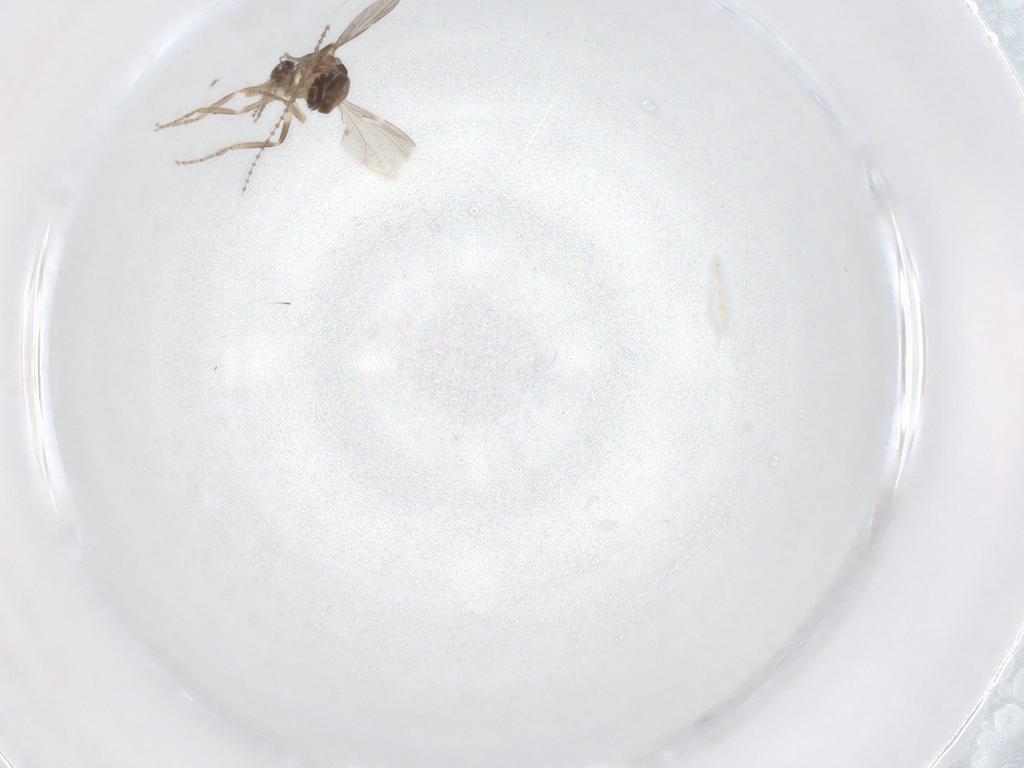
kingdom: Animalia
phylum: Arthropoda
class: Insecta
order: Diptera
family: Ceratopogonidae
